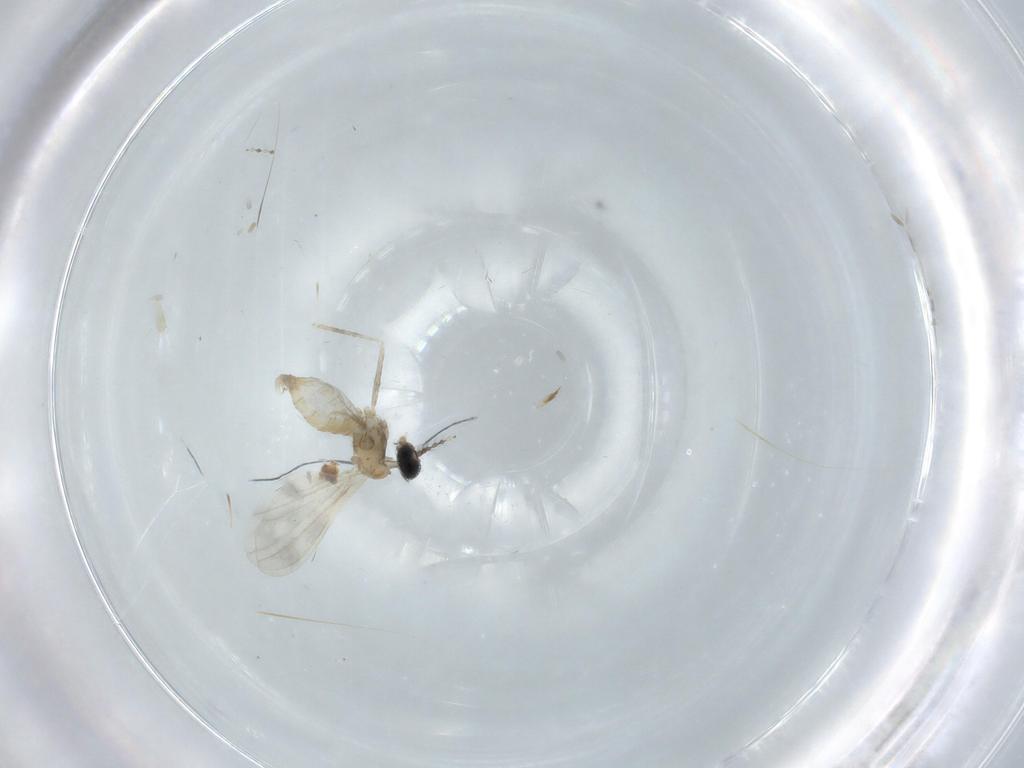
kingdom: Animalia
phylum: Arthropoda
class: Insecta
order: Diptera
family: Cecidomyiidae
